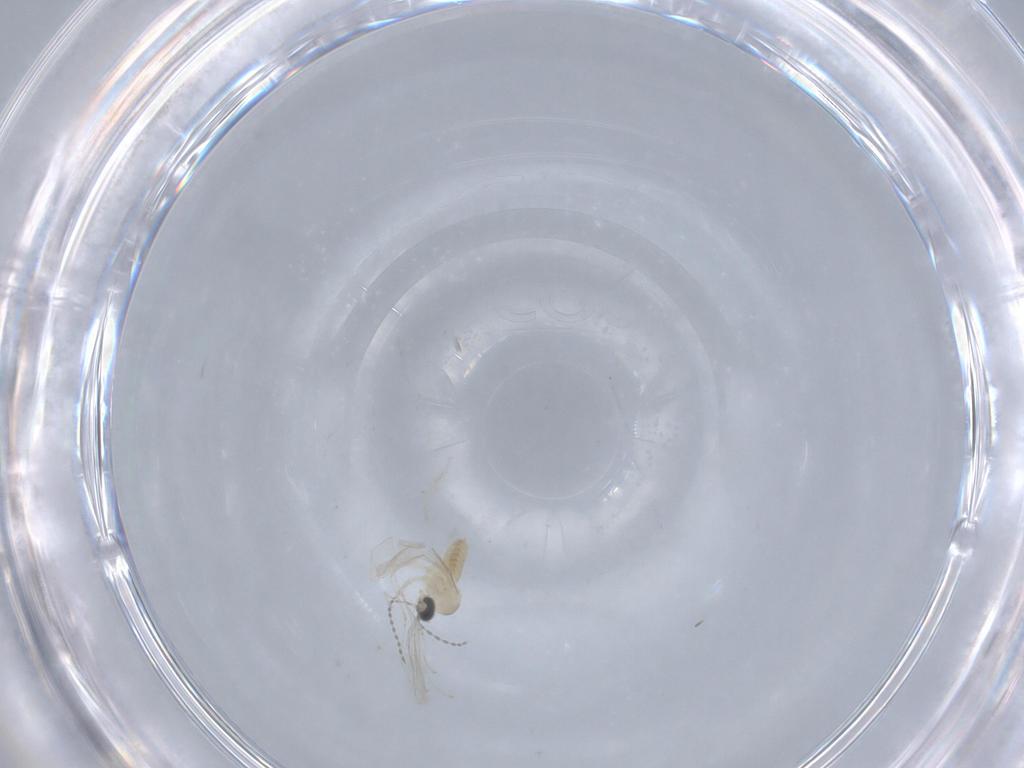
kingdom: Animalia
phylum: Arthropoda
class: Insecta
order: Diptera
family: Cecidomyiidae
